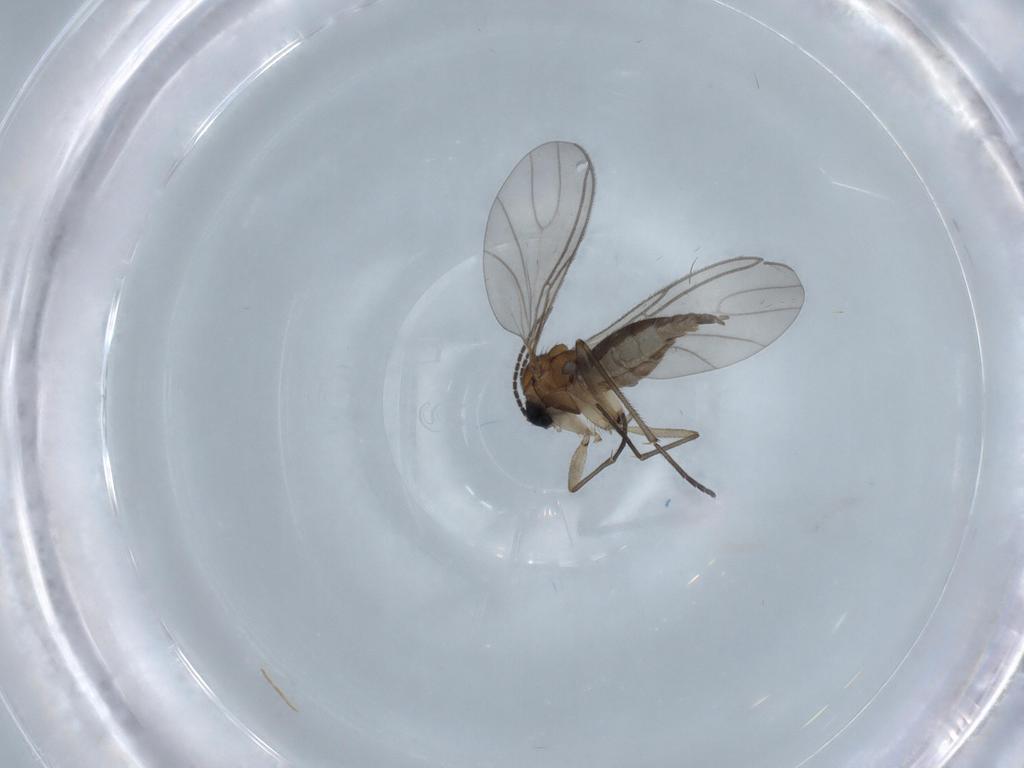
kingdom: Animalia
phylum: Arthropoda
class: Insecta
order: Diptera
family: Sciaridae
